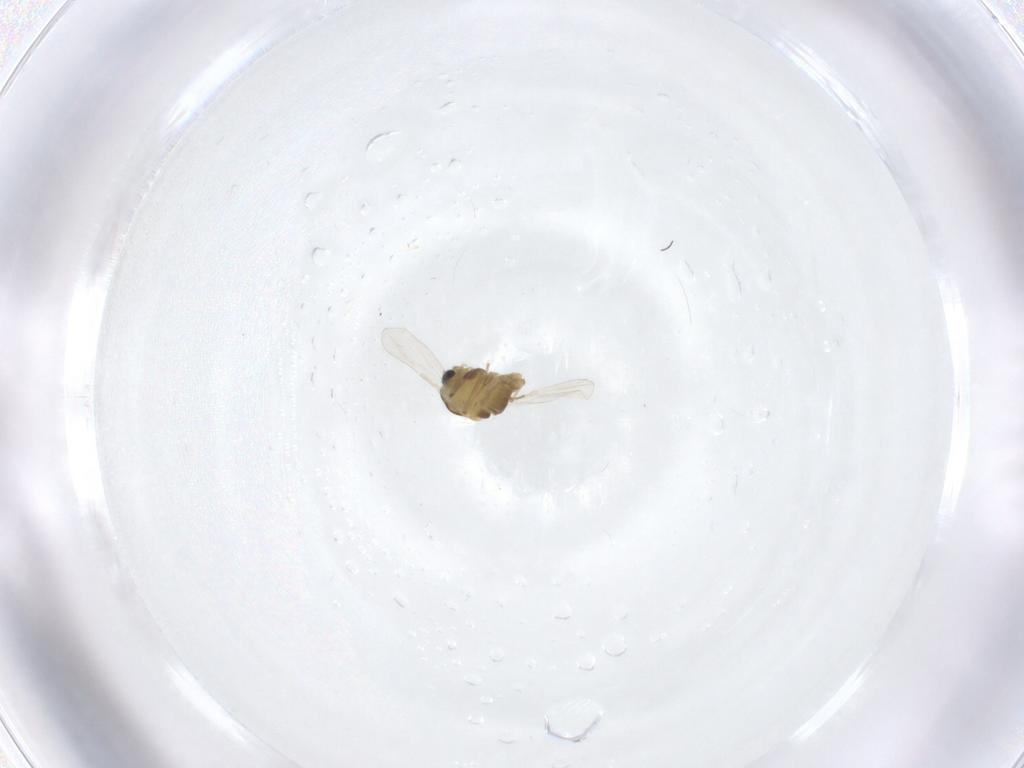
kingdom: Animalia
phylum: Arthropoda
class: Insecta
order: Diptera
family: Chironomidae
